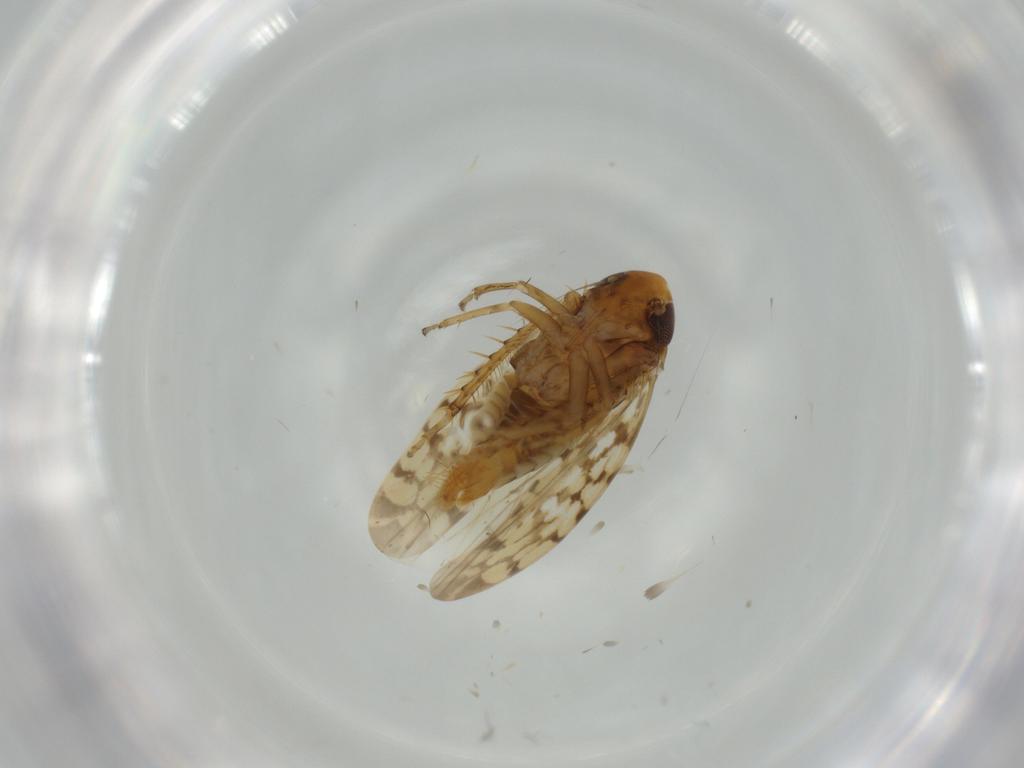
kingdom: Animalia
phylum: Arthropoda
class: Insecta
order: Hemiptera
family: Cicadellidae
